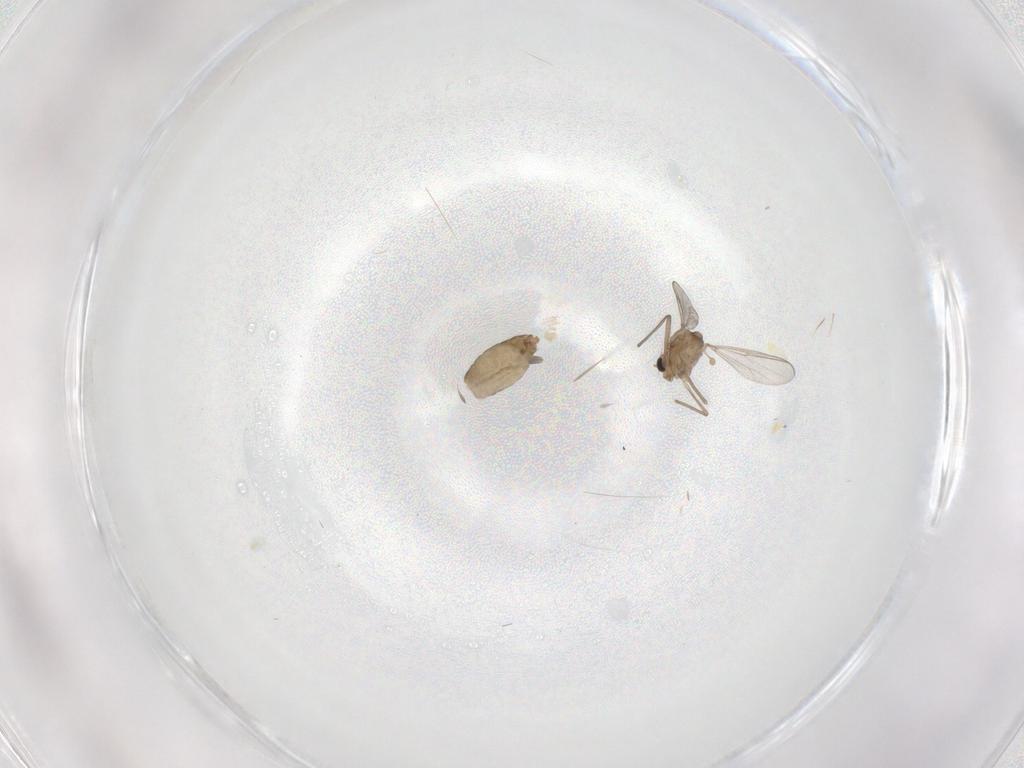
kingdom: Animalia
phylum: Arthropoda
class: Insecta
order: Diptera
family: Chironomidae
